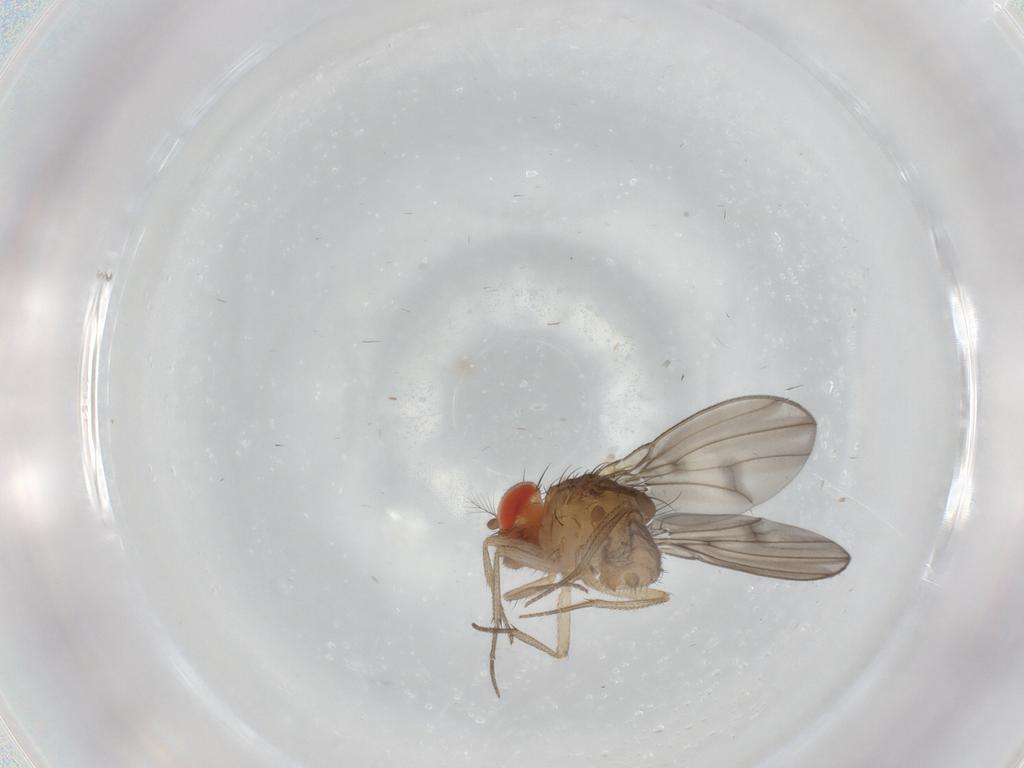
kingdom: Animalia
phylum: Arthropoda
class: Insecta
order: Diptera
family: Drosophilidae
